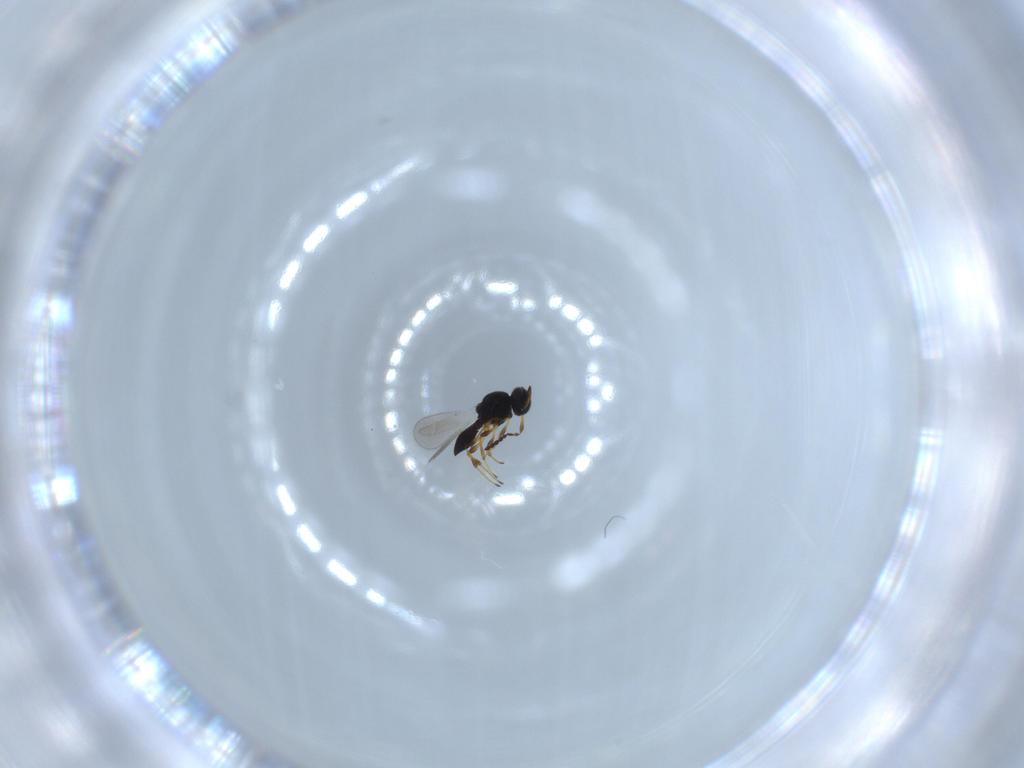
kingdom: Animalia
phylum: Arthropoda
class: Insecta
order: Hymenoptera
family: Platygastridae
